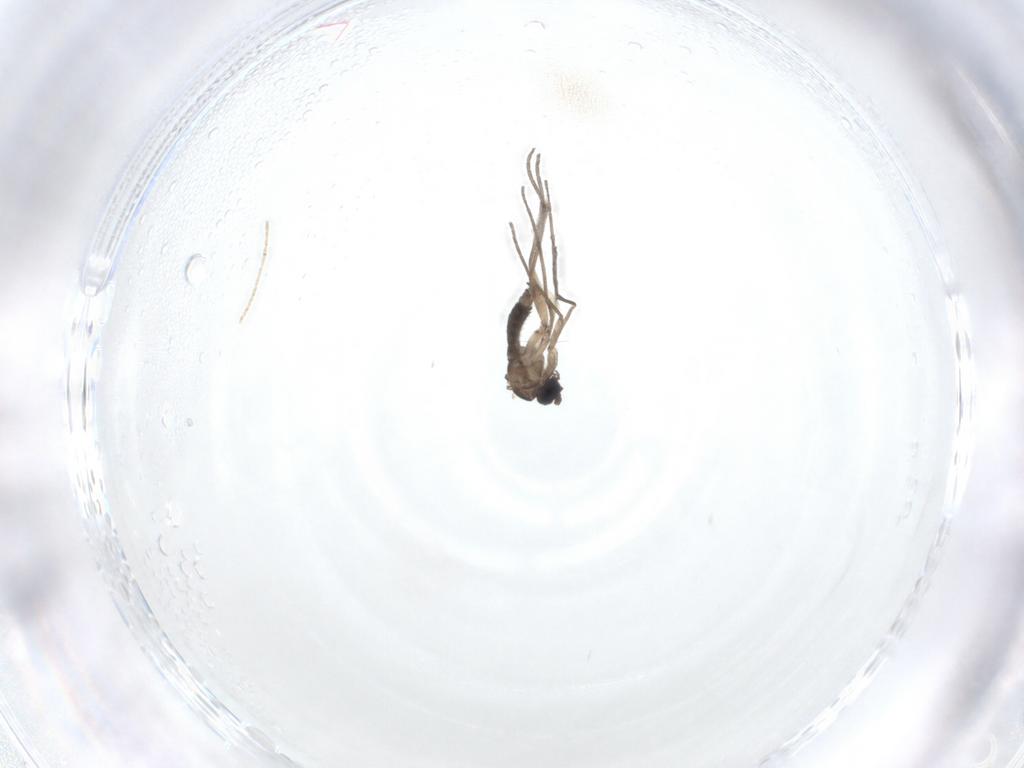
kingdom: Animalia
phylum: Arthropoda
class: Insecta
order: Diptera
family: Sciaridae
